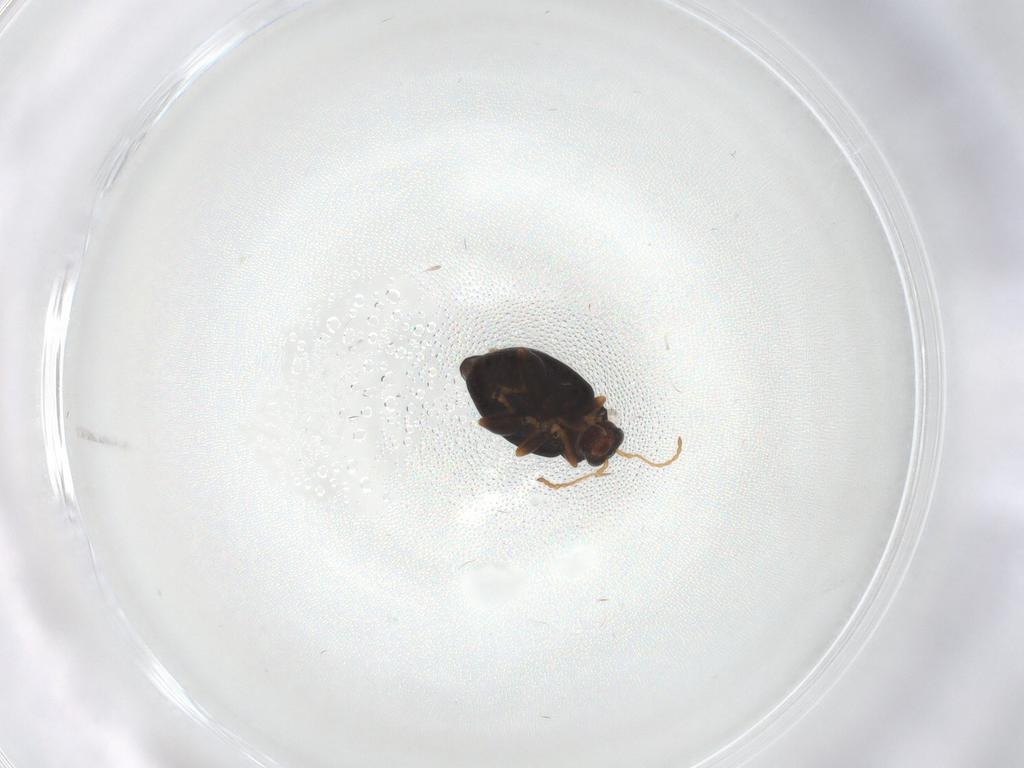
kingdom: Animalia
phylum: Arthropoda
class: Insecta
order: Coleoptera
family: Chrysomelidae
